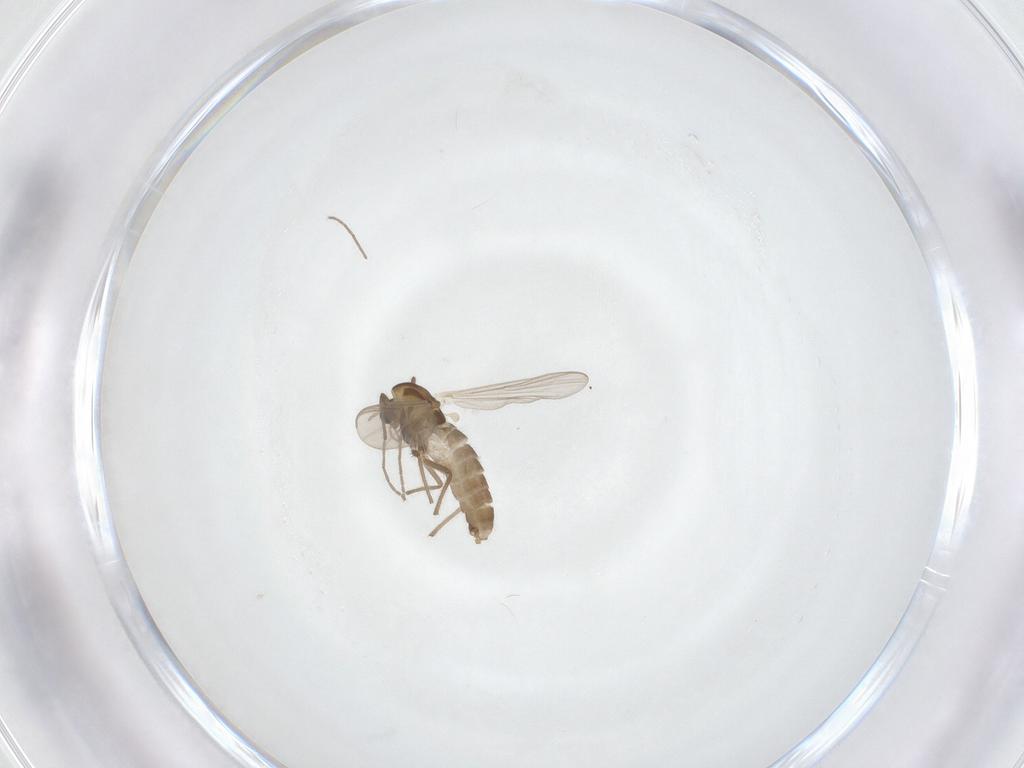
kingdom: Animalia
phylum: Arthropoda
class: Insecta
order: Diptera
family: Chironomidae
